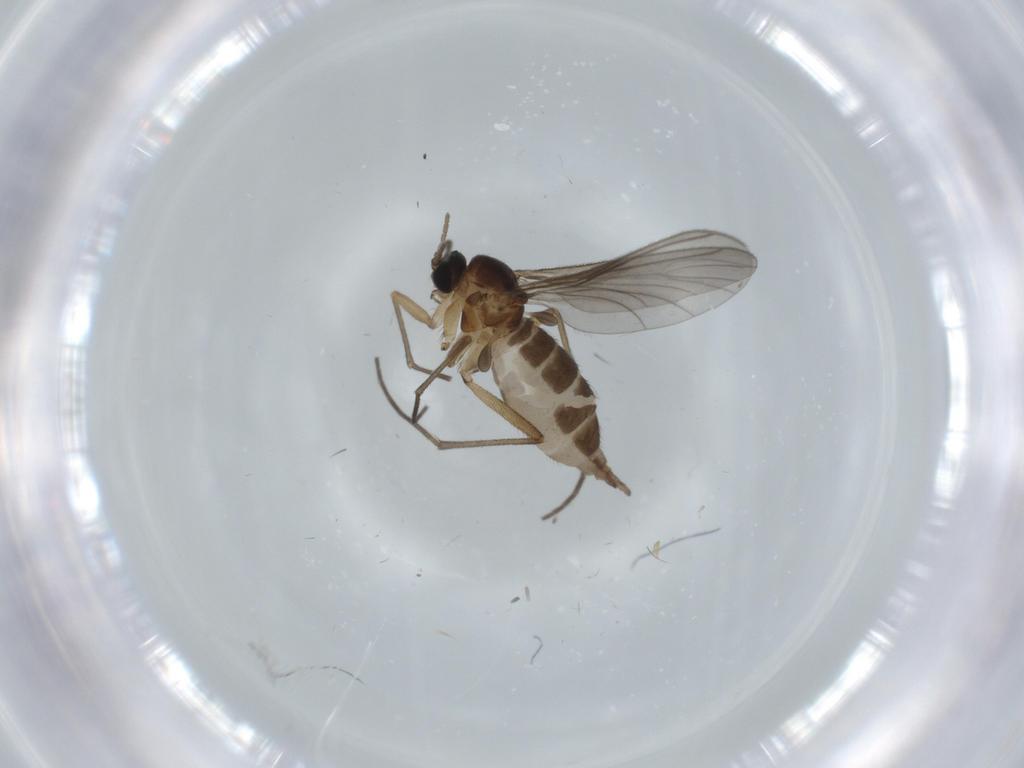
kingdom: Animalia
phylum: Arthropoda
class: Insecta
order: Diptera
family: Sciaridae
